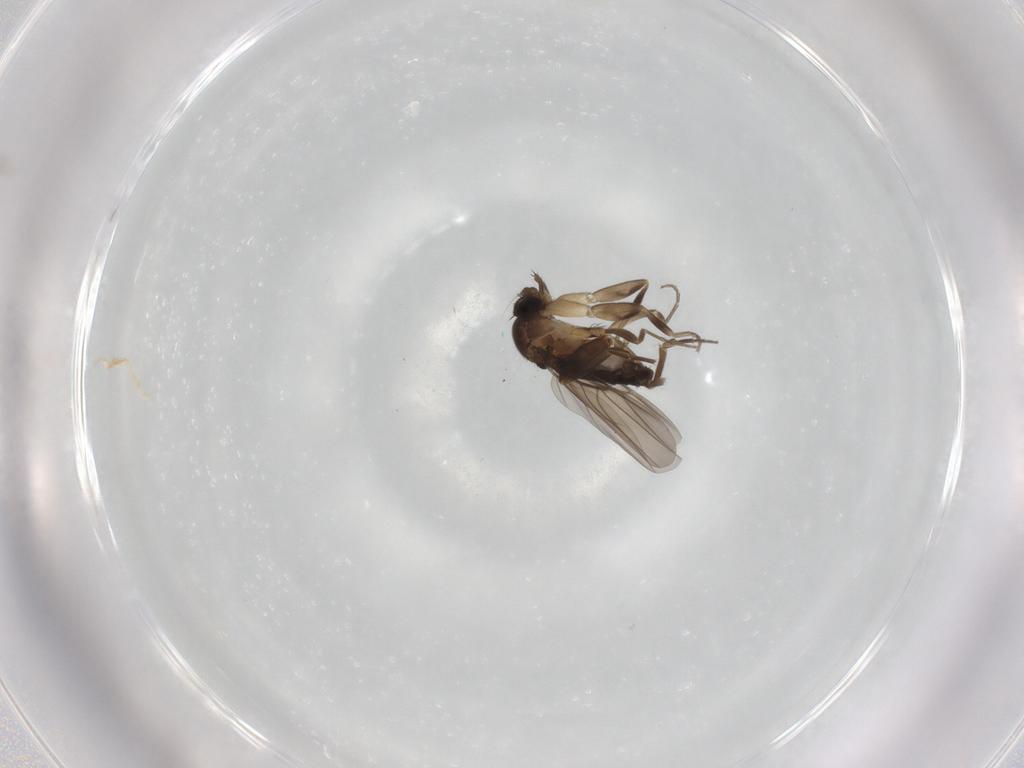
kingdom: Animalia
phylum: Arthropoda
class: Insecta
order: Diptera
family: Phoridae
